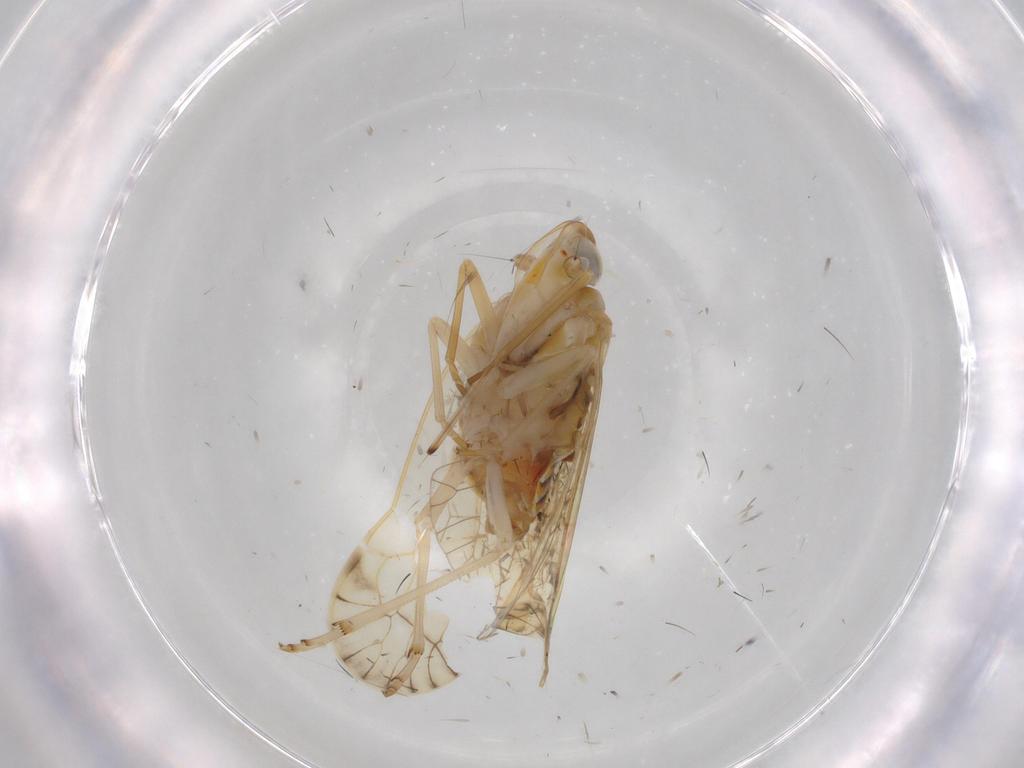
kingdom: Animalia
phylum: Arthropoda
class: Insecta
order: Hymenoptera
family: Dryinidae
